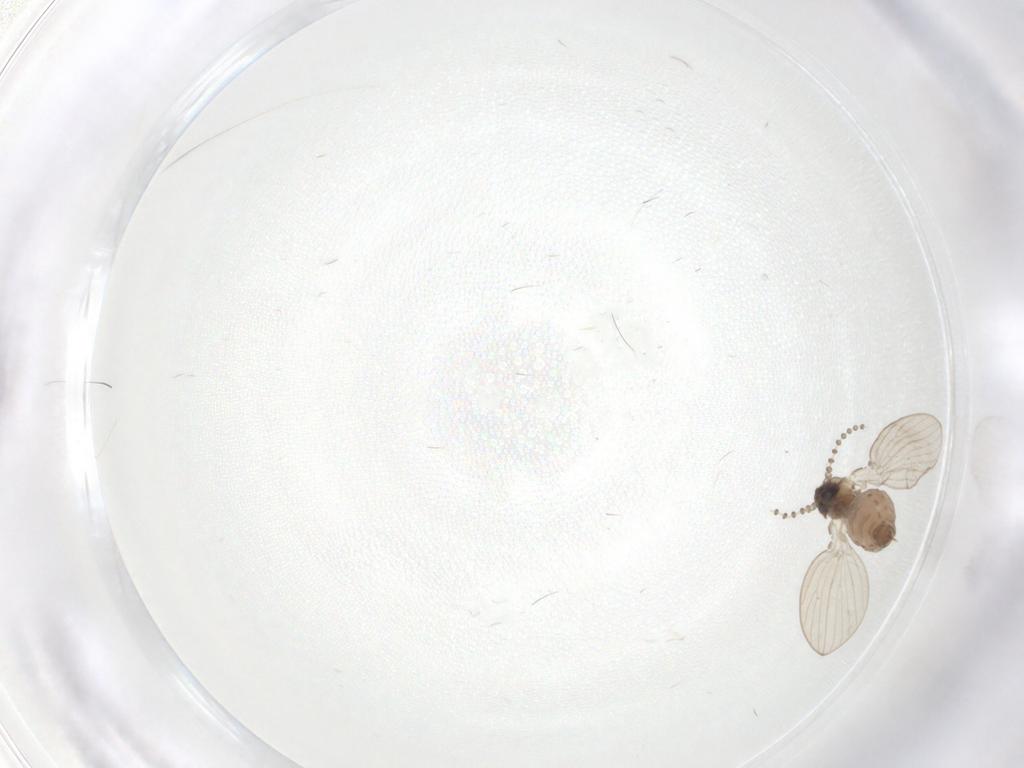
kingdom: Animalia
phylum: Arthropoda
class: Insecta
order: Diptera
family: Psychodidae
